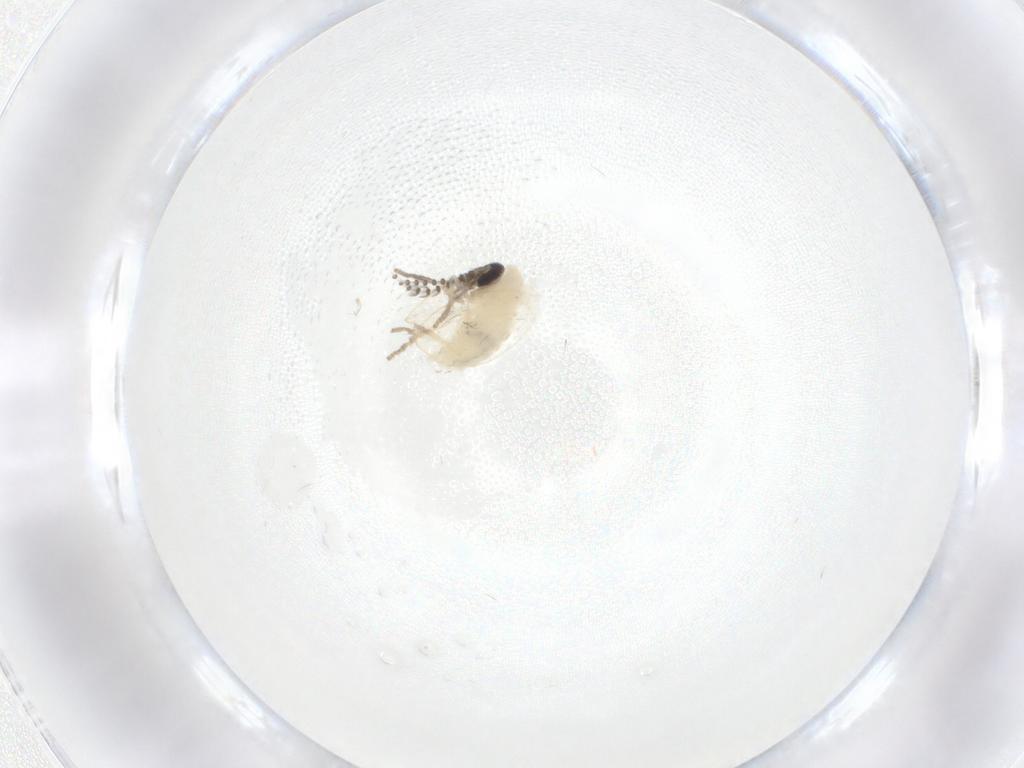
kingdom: Animalia
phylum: Arthropoda
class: Insecta
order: Diptera
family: Psychodidae
